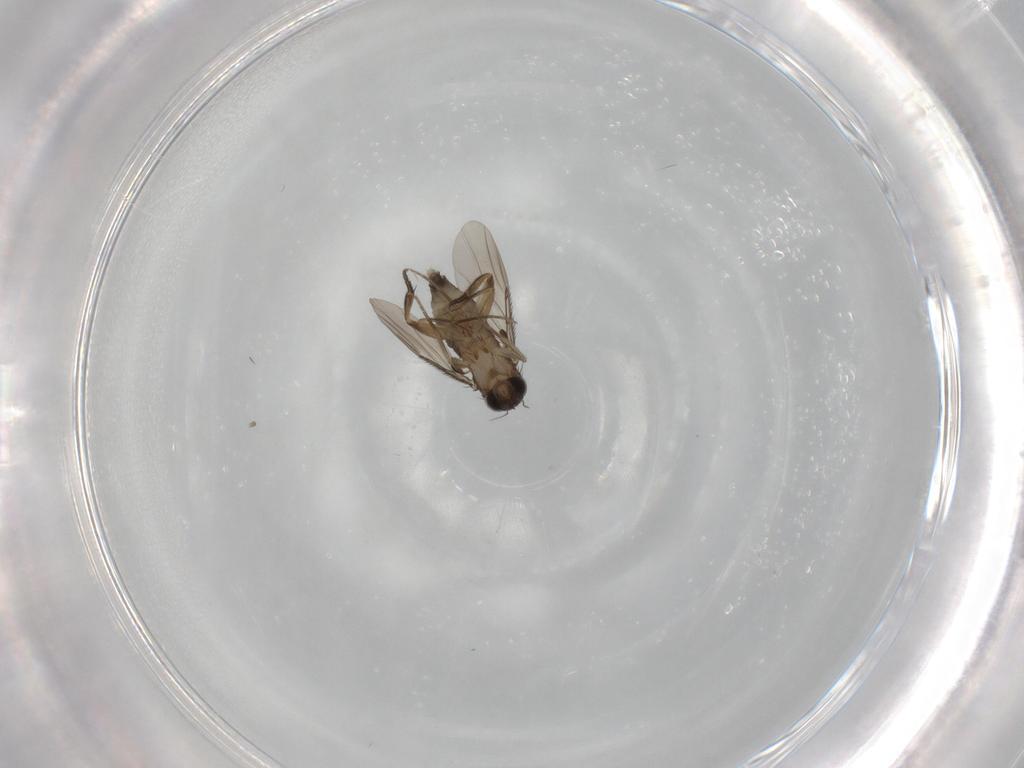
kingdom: Animalia
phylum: Arthropoda
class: Insecta
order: Diptera
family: Phoridae
